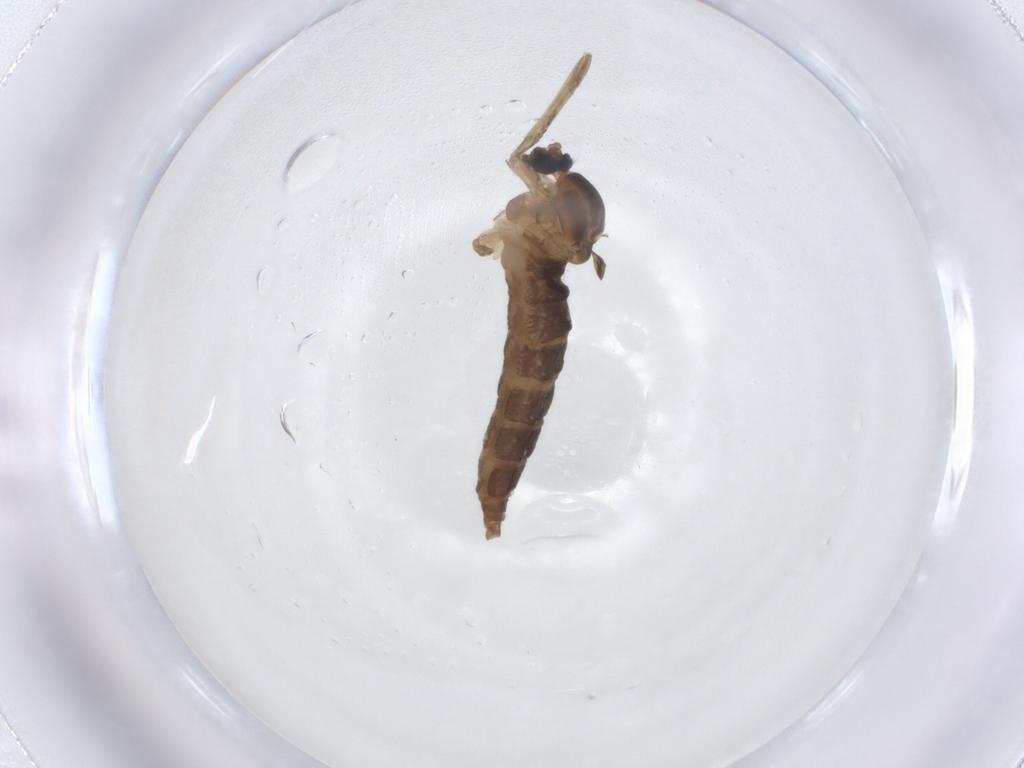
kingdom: Animalia
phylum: Arthropoda
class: Insecta
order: Diptera
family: Cecidomyiidae
